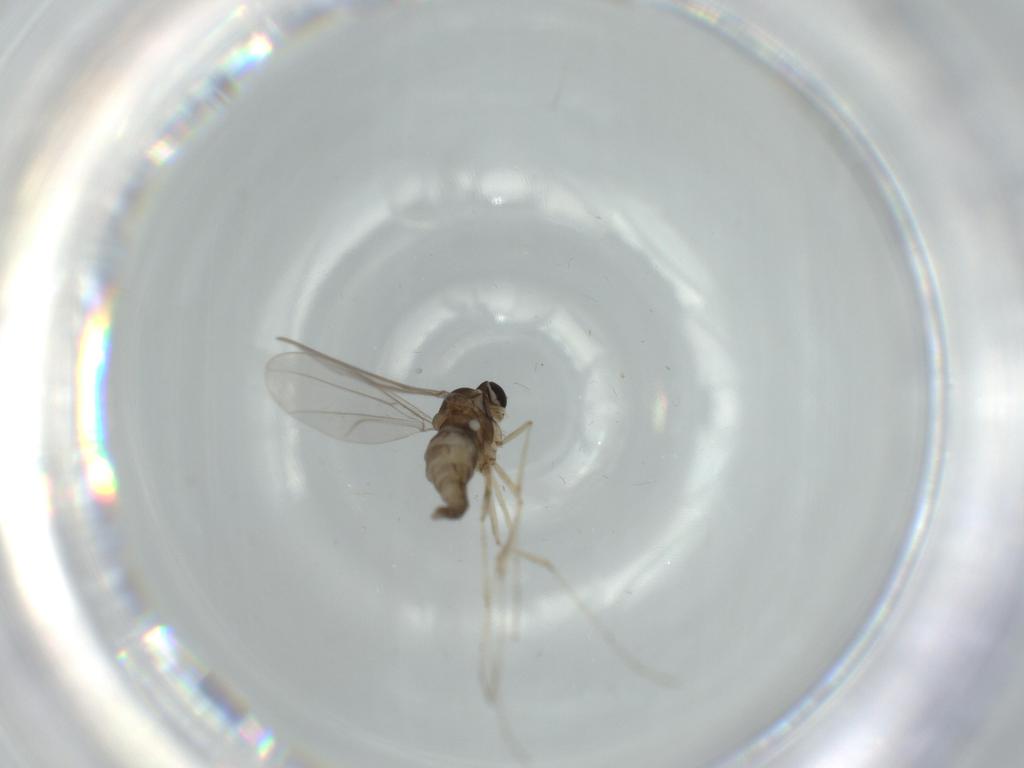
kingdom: Animalia
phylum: Arthropoda
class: Insecta
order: Diptera
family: Cecidomyiidae
